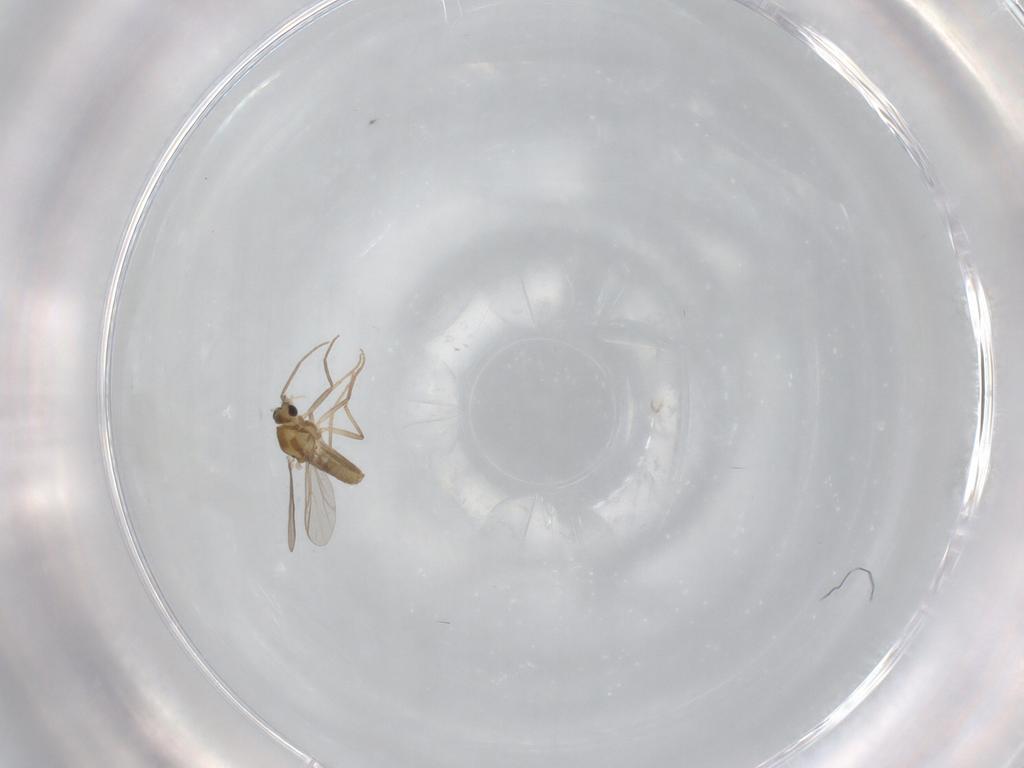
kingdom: Animalia
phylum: Arthropoda
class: Insecta
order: Diptera
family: Chironomidae
